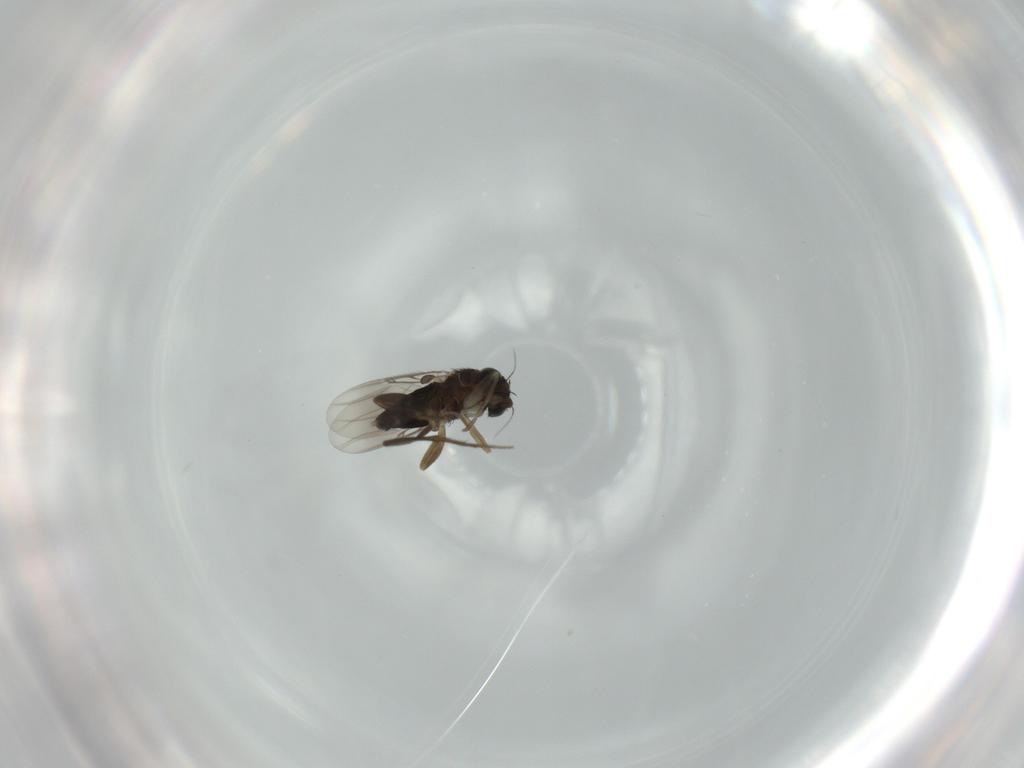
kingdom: Animalia
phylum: Arthropoda
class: Insecta
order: Diptera
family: Phoridae
